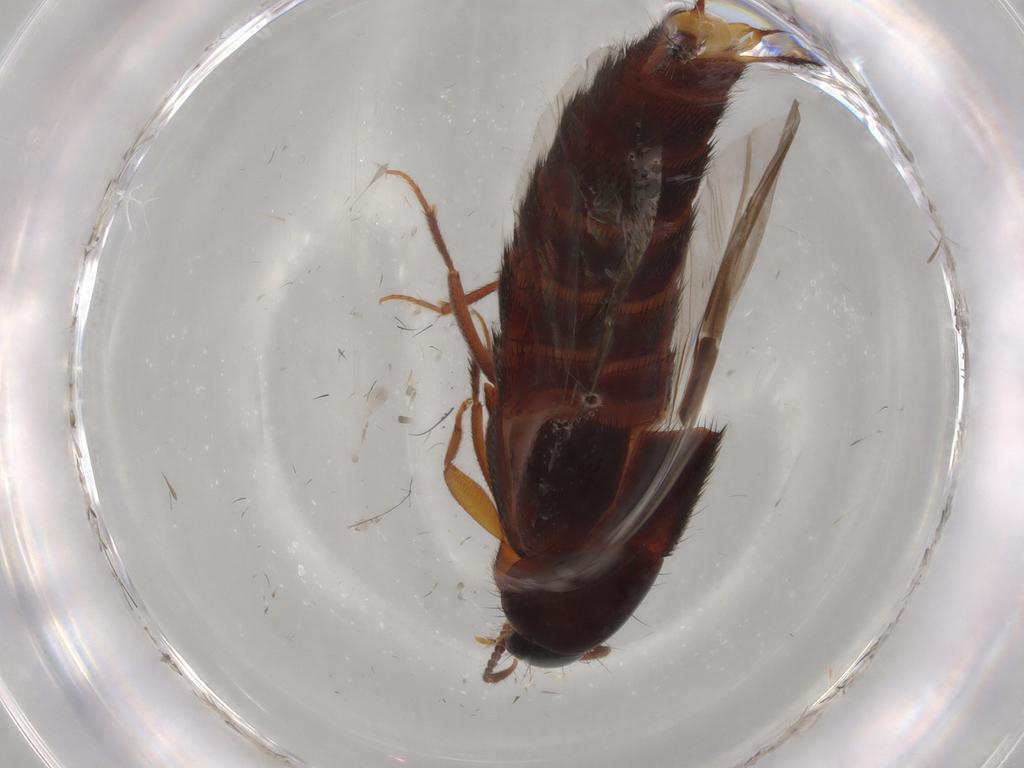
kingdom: Animalia
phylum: Arthropoda
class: Insecta
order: Coleoptera
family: Staphylinidae
